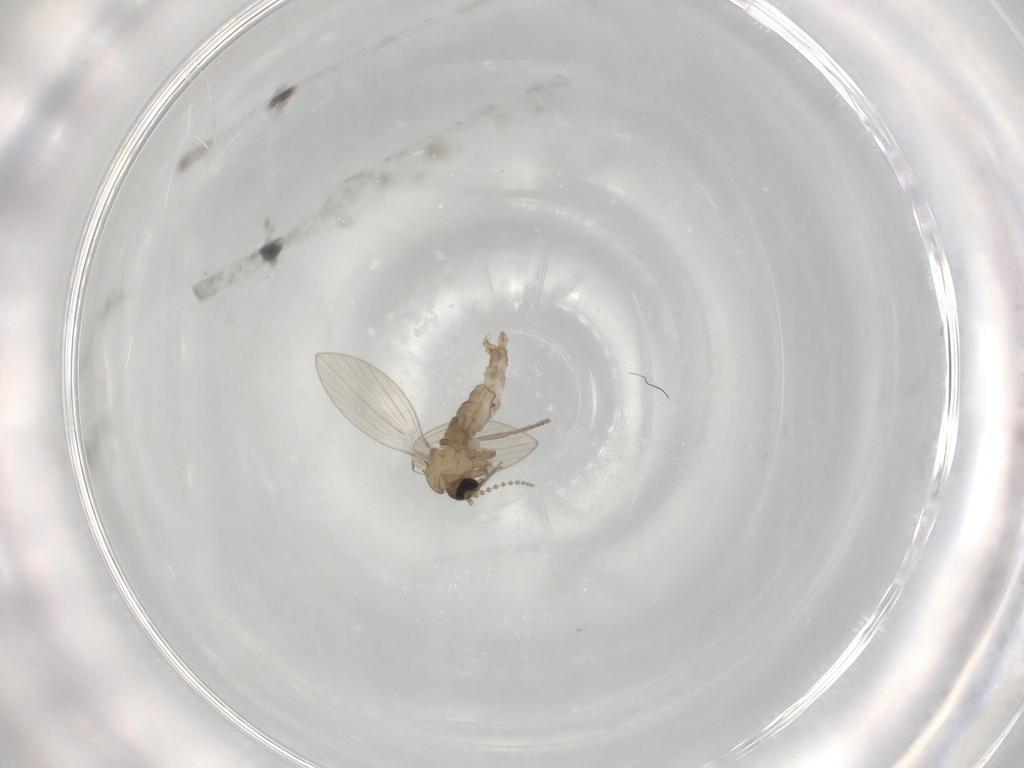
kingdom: Animalia
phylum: Arthropoda
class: Insecta
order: Diptera
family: Psychodidae
